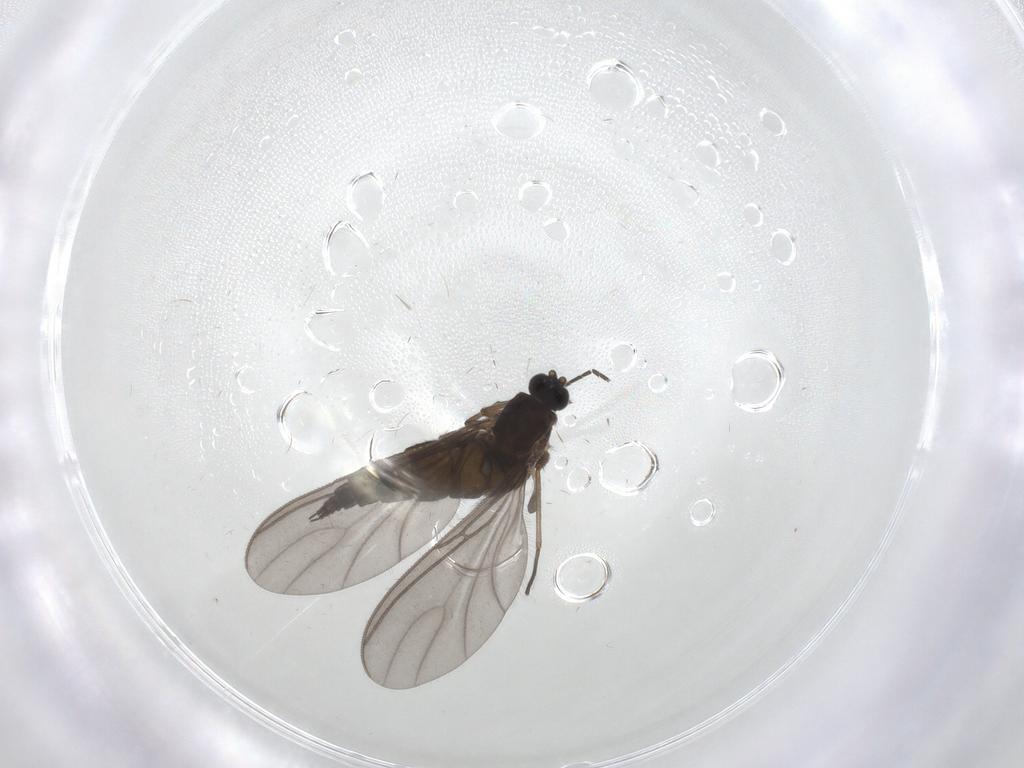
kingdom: Animalia
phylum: Arthropoda
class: Insecta
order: Diptera
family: Sciaridae
